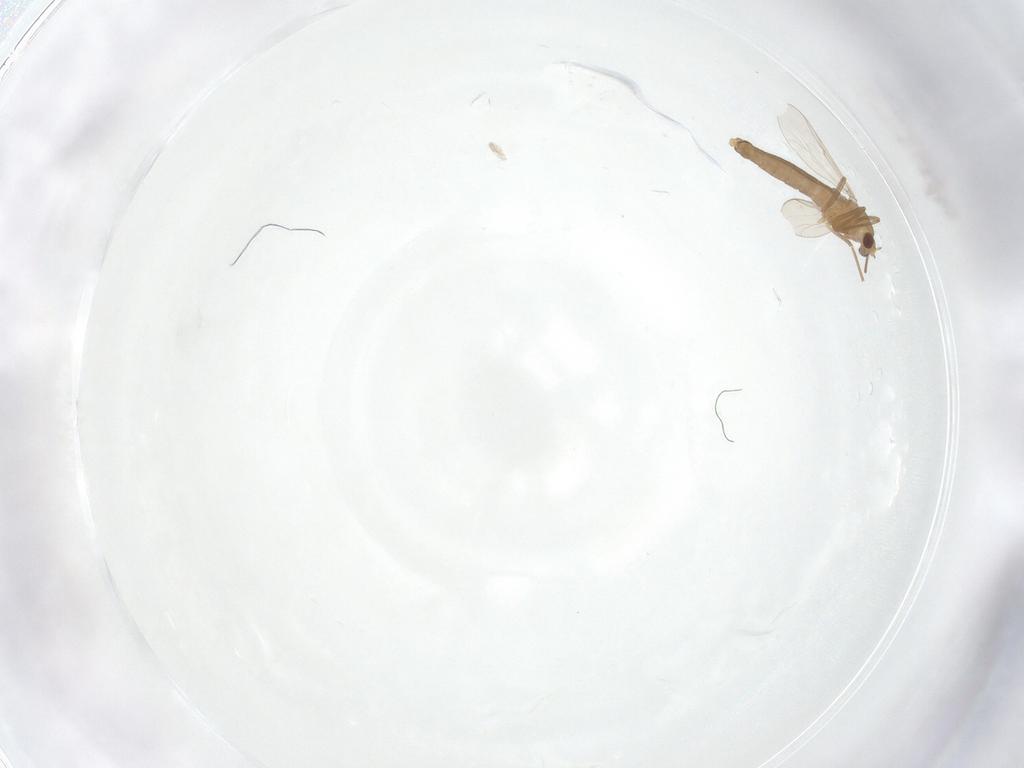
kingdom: Animalia
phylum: Arthropoda
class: Insecta
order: Diptera
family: Chironomidae
